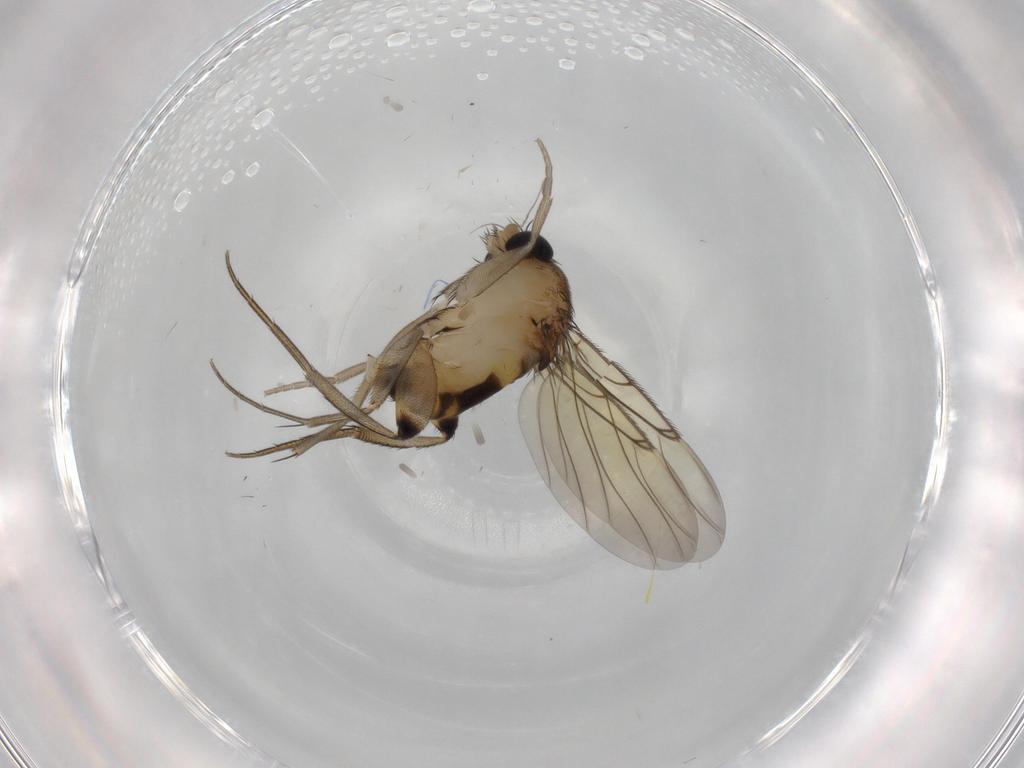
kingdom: Animalia
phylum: Arthropoda
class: Insecta
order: Diptera
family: Phoridae
